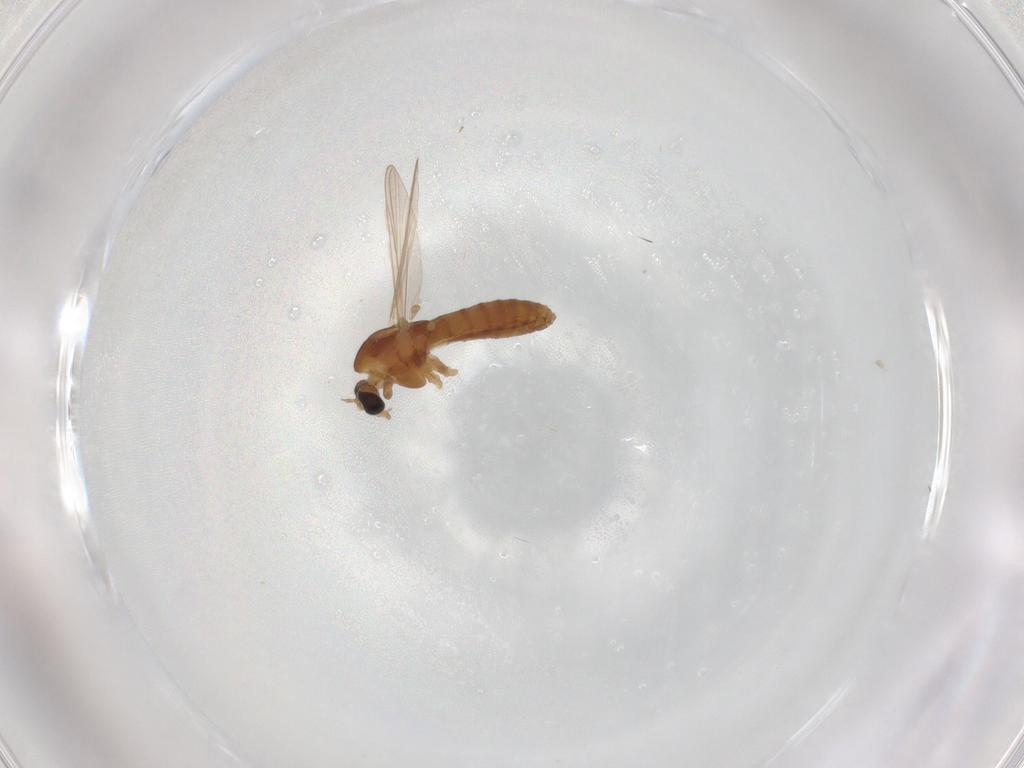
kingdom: Animalia
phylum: Arthropoda
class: Insecta
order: Diptera
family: Chironomidae
